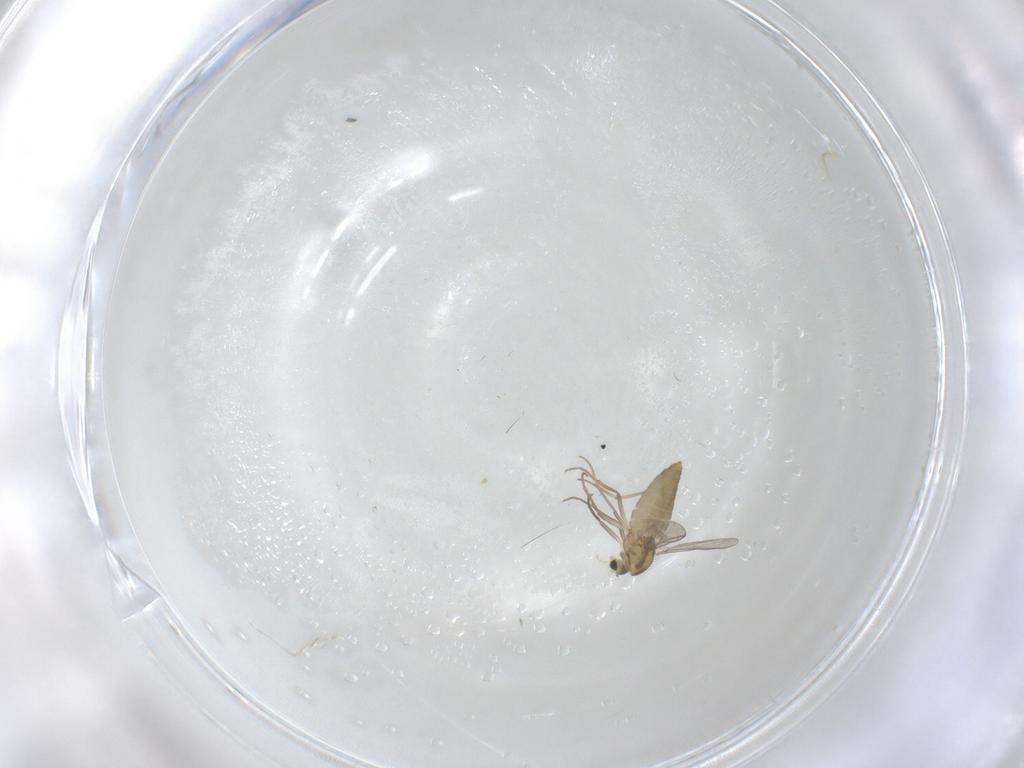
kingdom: Animalia
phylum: Arthropoda
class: Insecta
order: Diptera
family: Chironomidae
